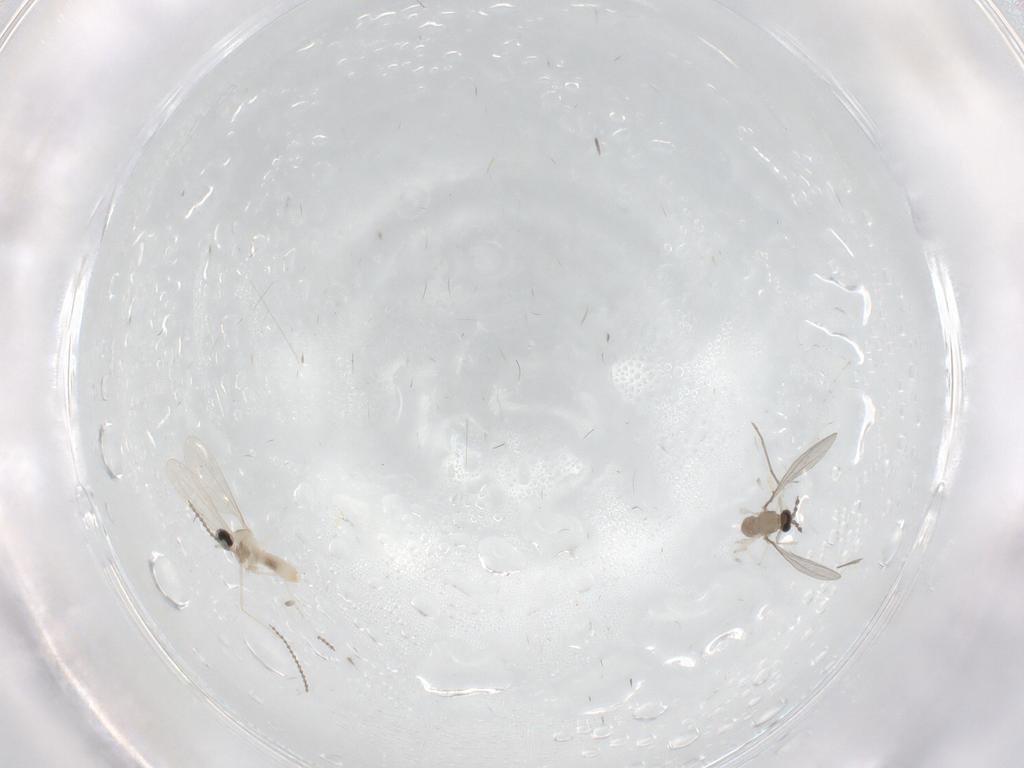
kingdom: Animalia
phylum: Arthropoda
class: Insecta
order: Diptera
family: Cecidomyiidae
